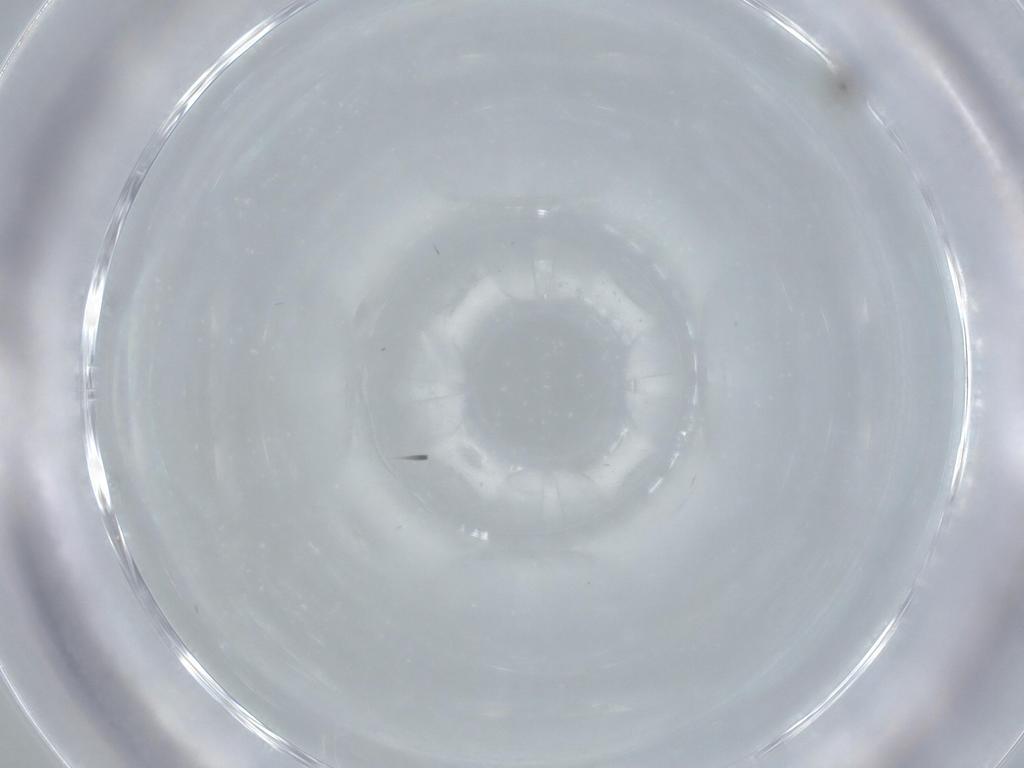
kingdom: Animalia
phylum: Arthropoda
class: Insecta
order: Hymenoptera
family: Mymaridae
